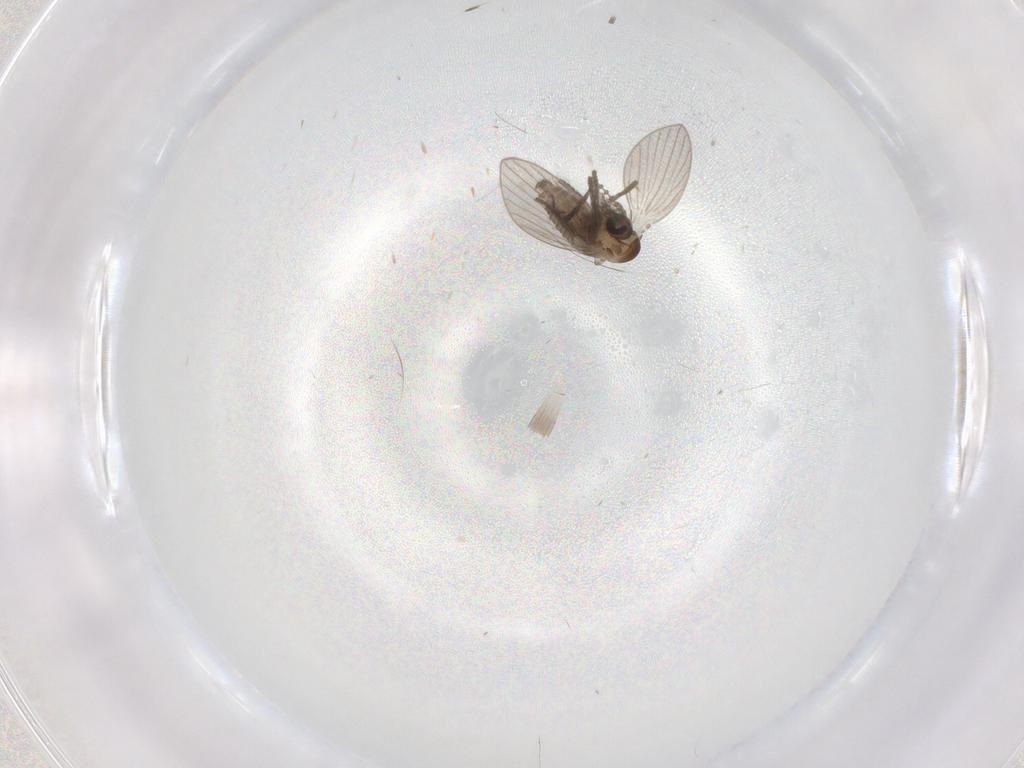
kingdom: Animalia
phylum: Arthropoda
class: Insecta
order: Diptera
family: Psychodidae
